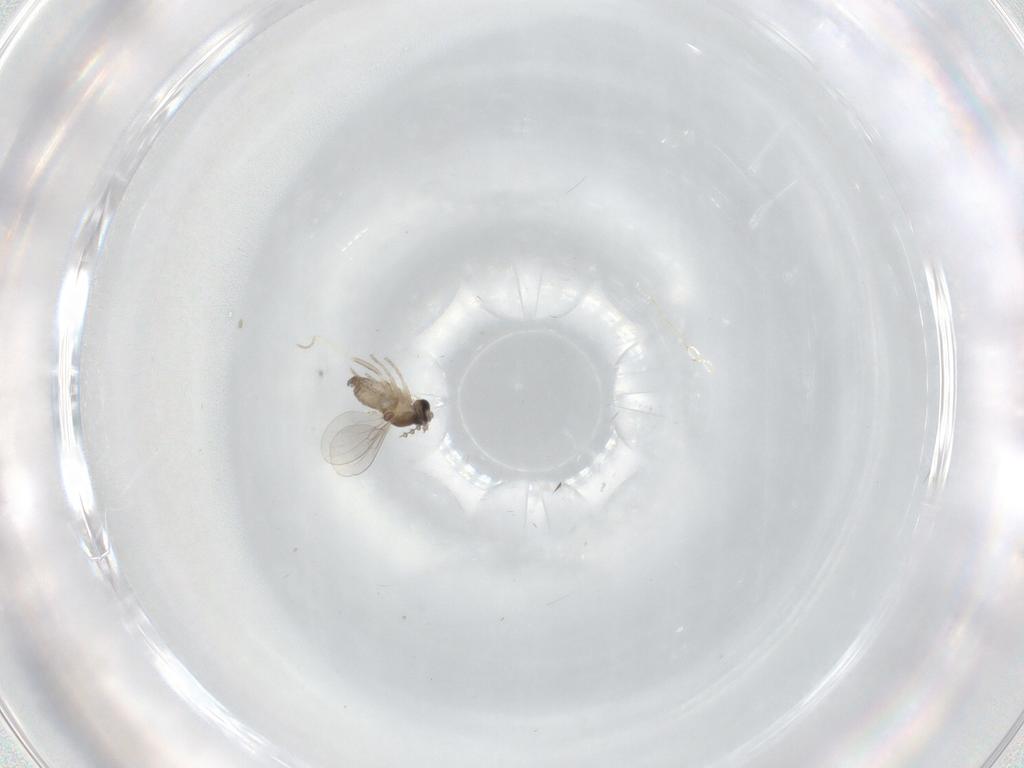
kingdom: Animalia
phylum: Arthropoda
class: Insecta
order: Diptera
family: Cecidomyiidae
